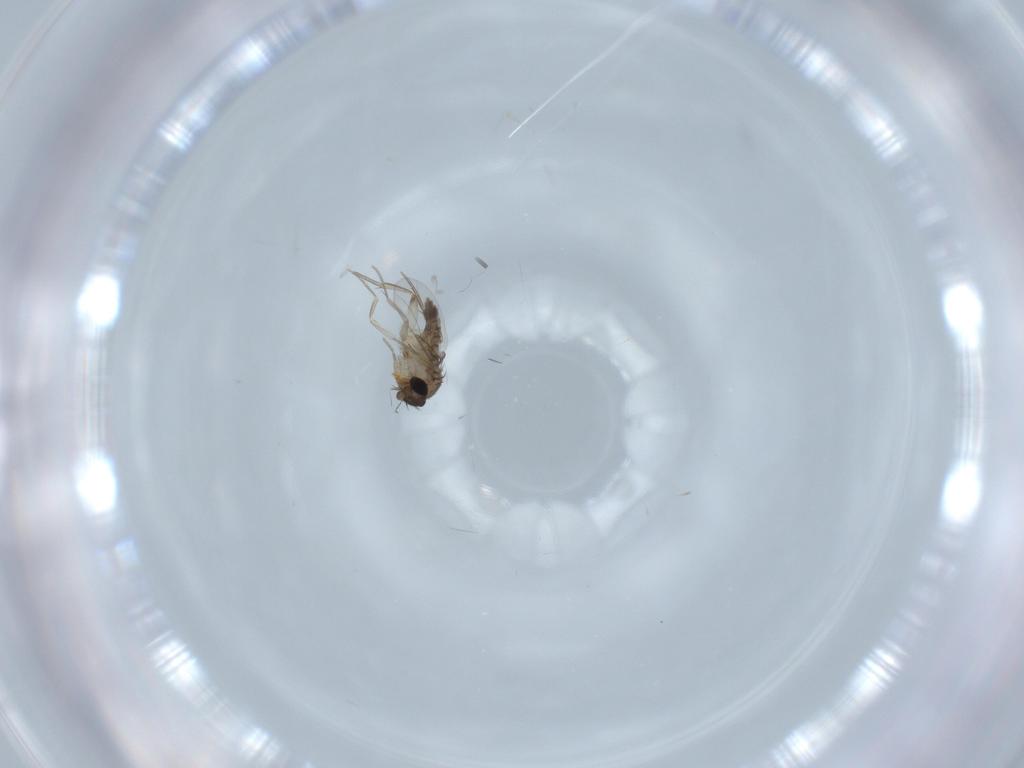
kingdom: Animalia
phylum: Arthropoda
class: Insecta
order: Diptera
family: Cecidomyiidae
